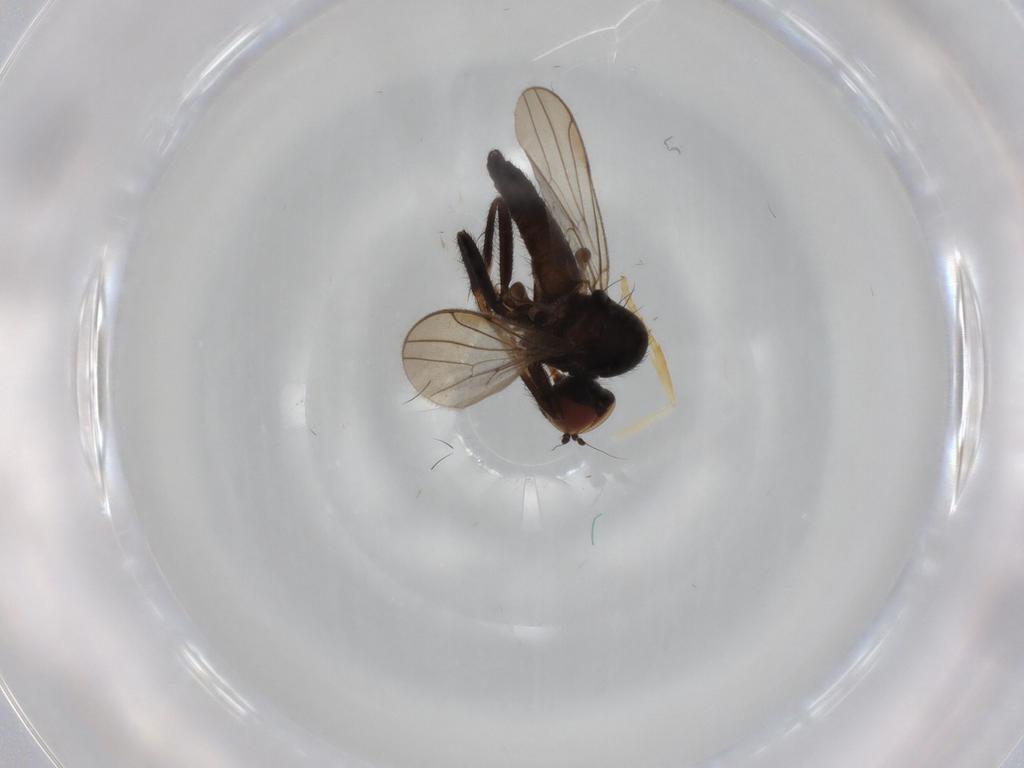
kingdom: Animalia
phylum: Arthropoda
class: Insecta
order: Diptera
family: Hybotidae
